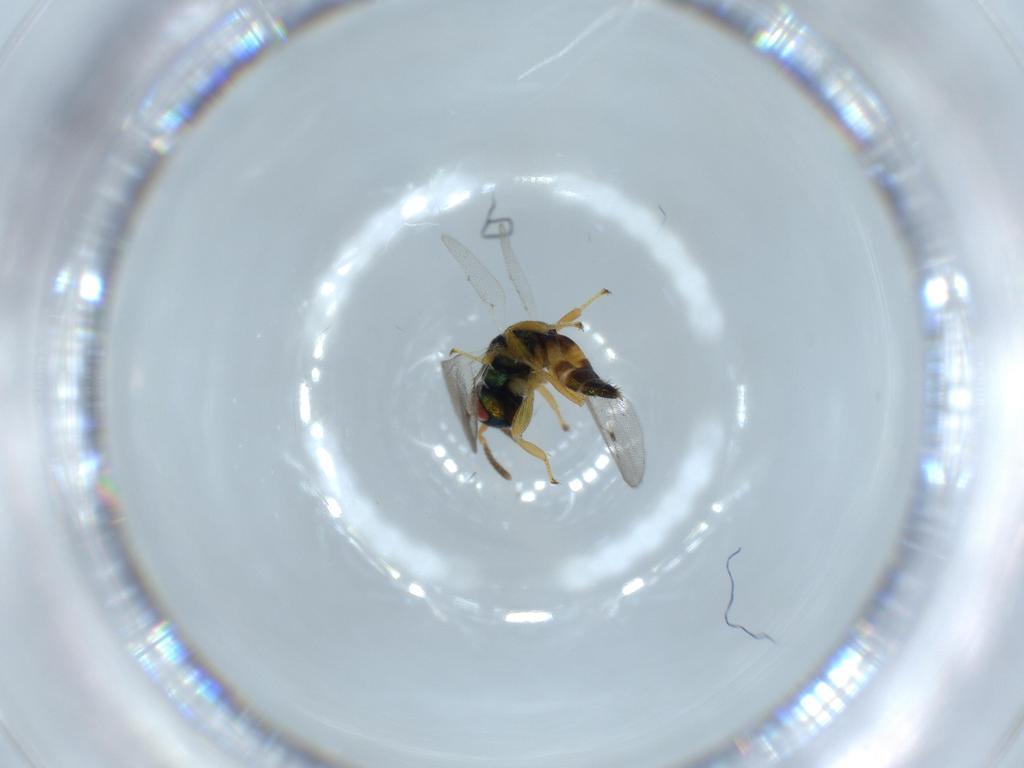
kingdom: Animalia
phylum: Arthropoda
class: Insecta
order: Hymenoptera
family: Pteromalidae
